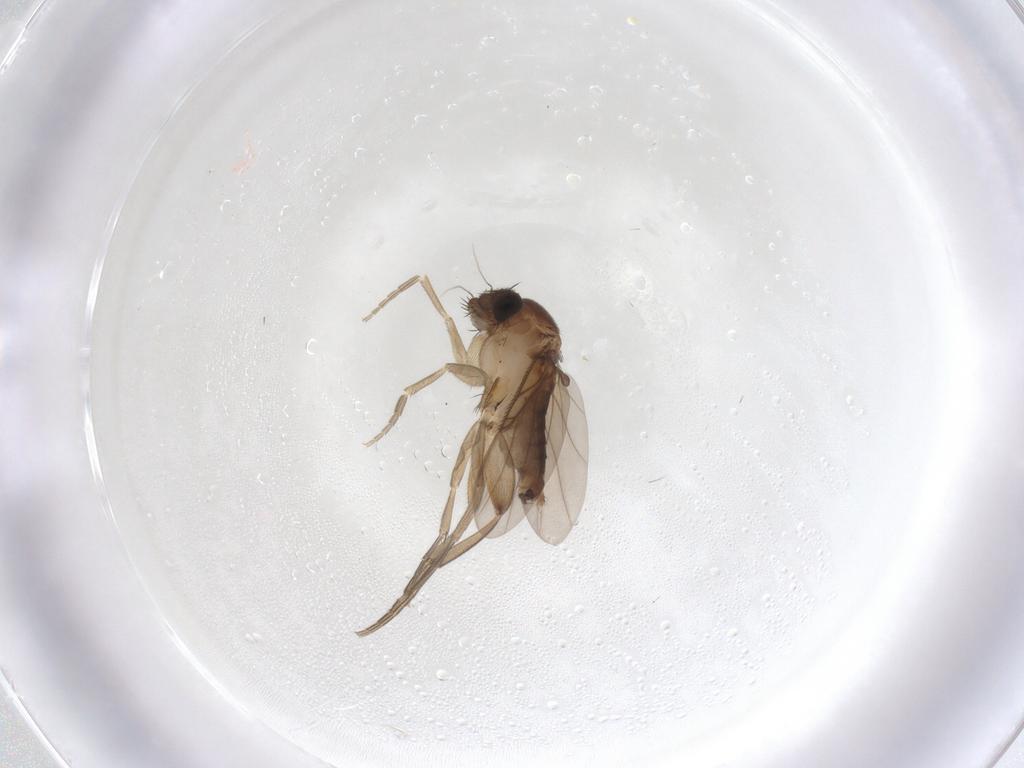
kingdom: Animalia
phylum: Arthropoda
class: Insecta
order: Diptera
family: Phoridae
